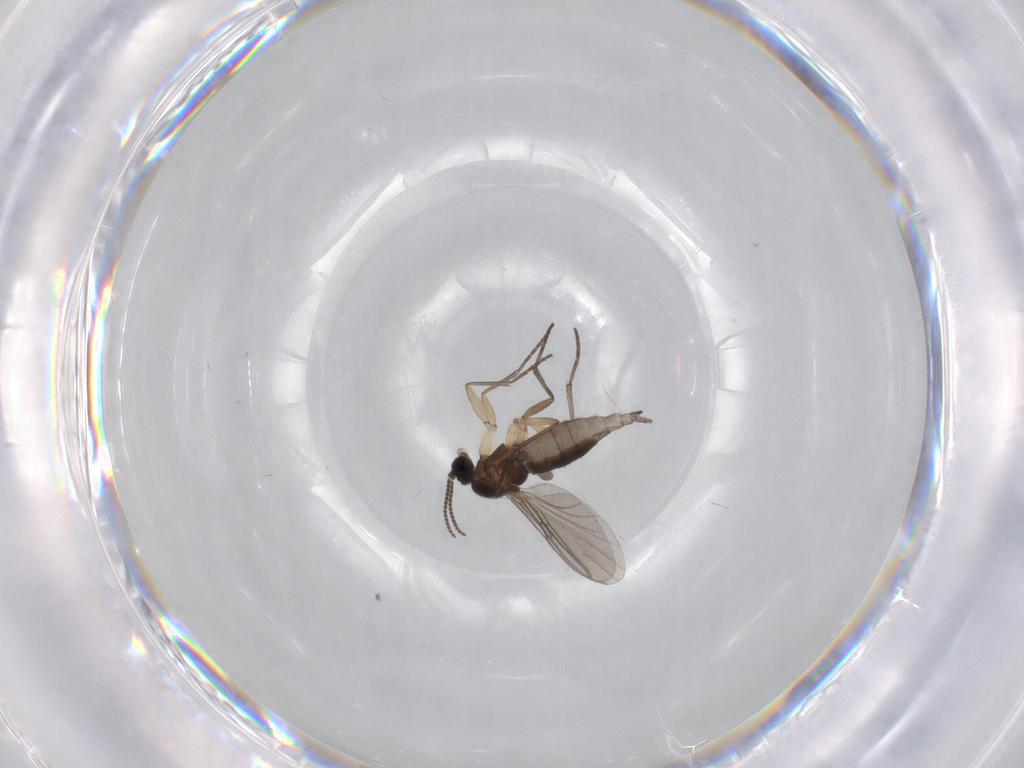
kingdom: Animalia
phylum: Arthropoda
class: Insecta
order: Diptera
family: Sciaridae
